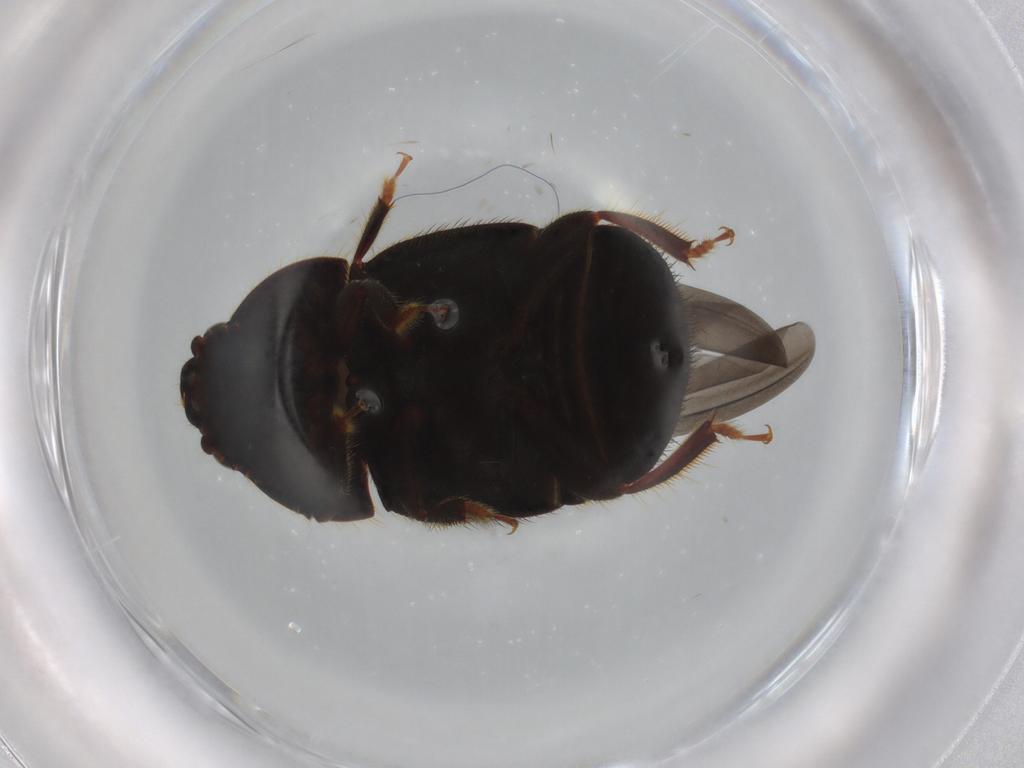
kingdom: Animalia
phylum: Arthropoda
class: Insecta
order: Coleoptera
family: Nitidulidae
